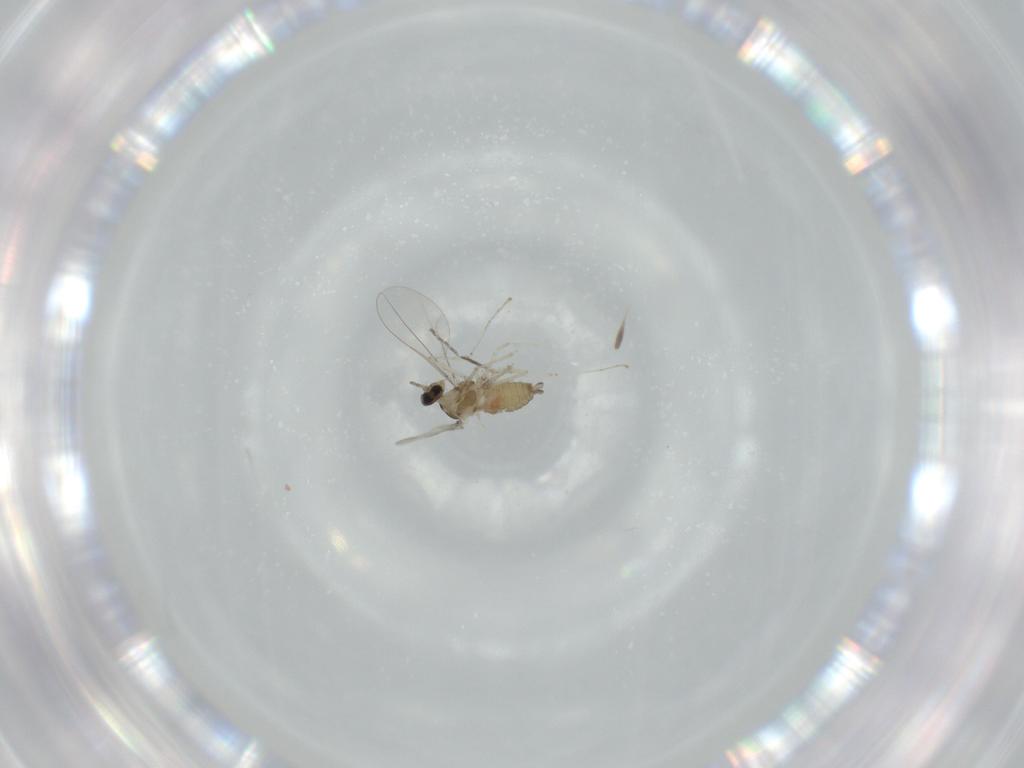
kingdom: Animalia
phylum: Arthropoda
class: Insecta
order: Diptera
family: Cecidomyiidae
